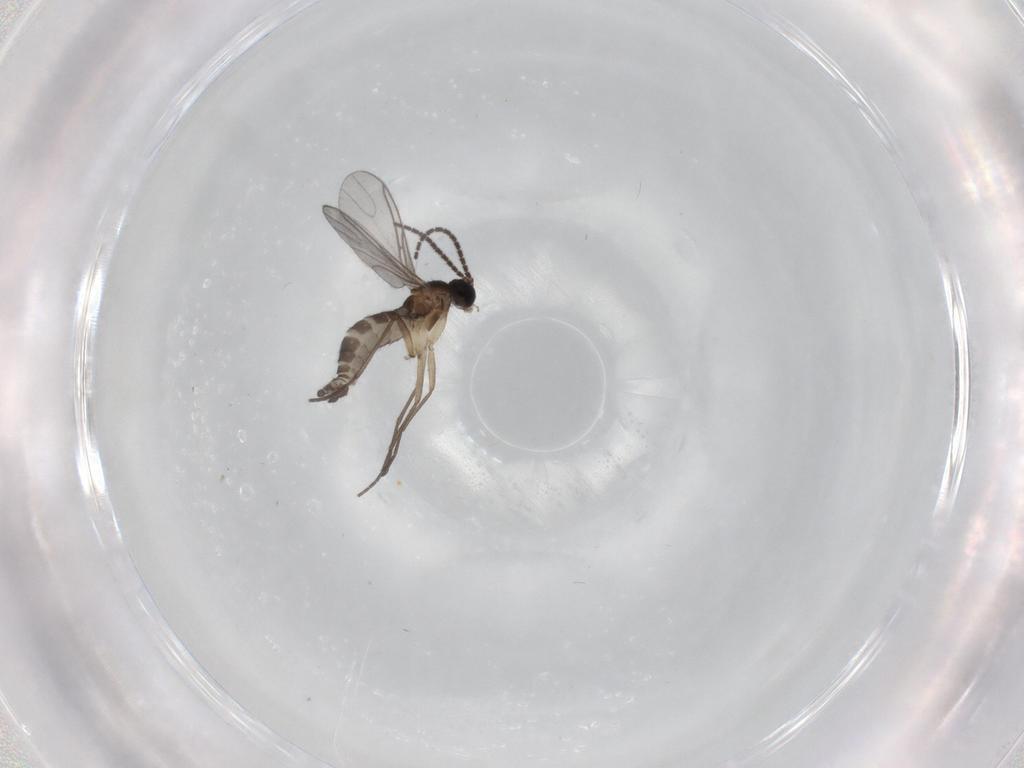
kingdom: Animalia
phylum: Arthropoda
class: Insecta
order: Diptera
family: Sciaridae
